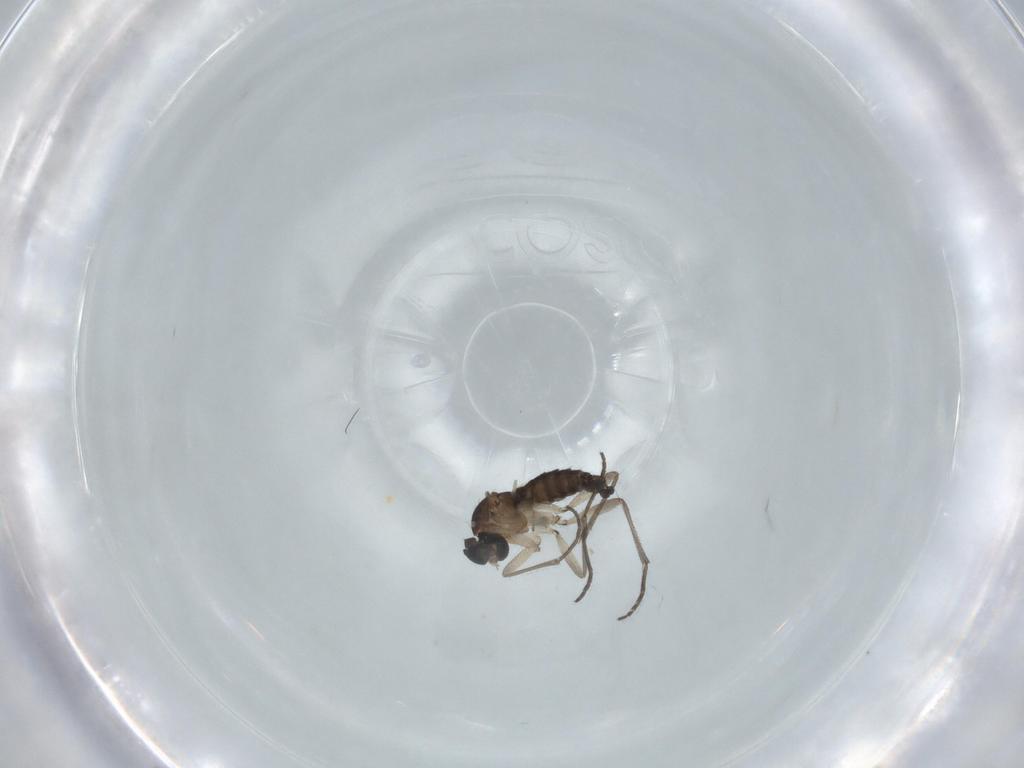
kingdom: Animalia
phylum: Arthropoda
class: Insecta
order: Diptera
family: Sciaridae
